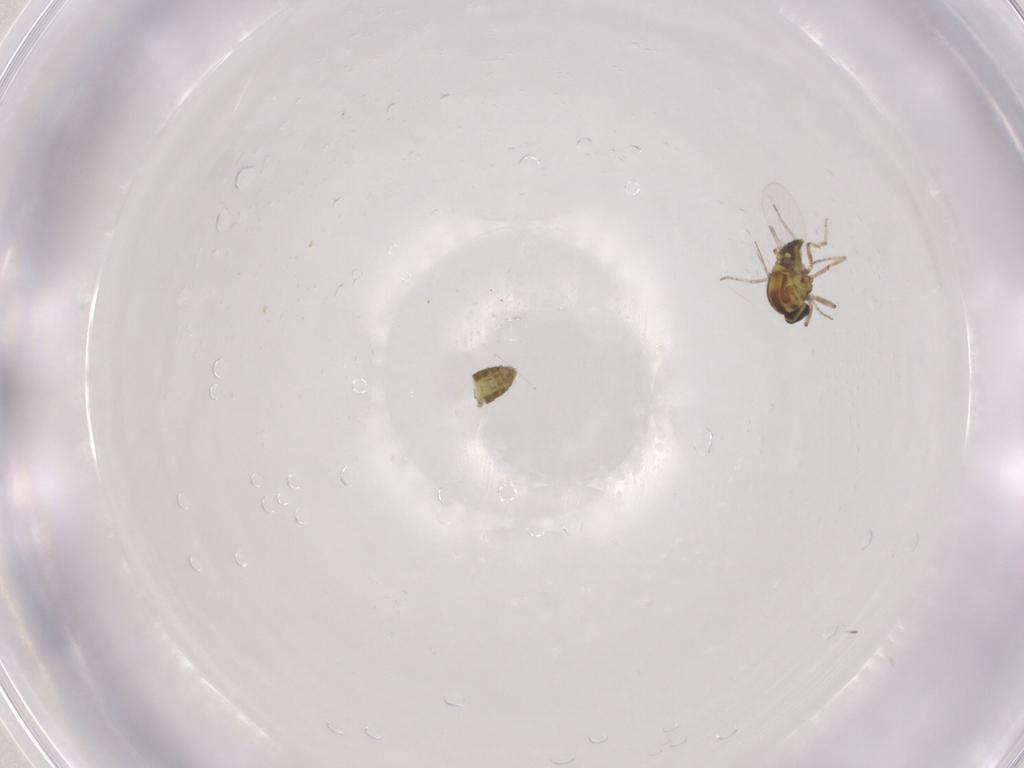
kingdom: Animalia
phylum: Arthropoda
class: Insecta
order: Diptera
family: Ceratopogonidae
